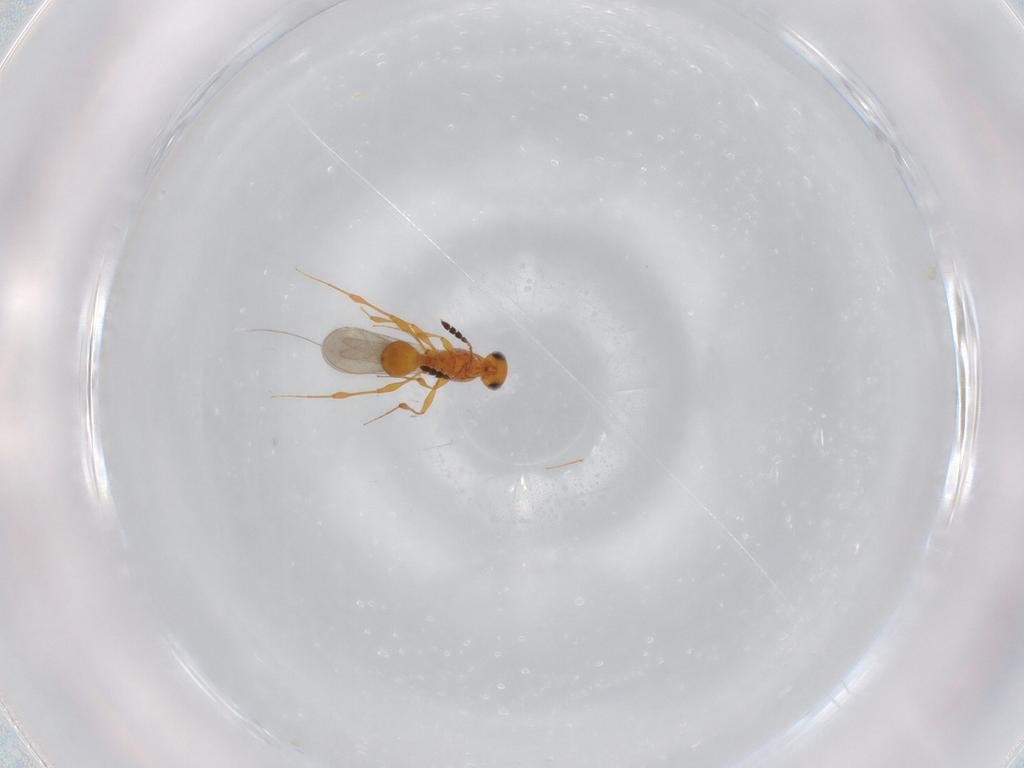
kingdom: Animalia
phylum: Arthropoda
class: Insecta
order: Hymenoptera
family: Platygastridae
